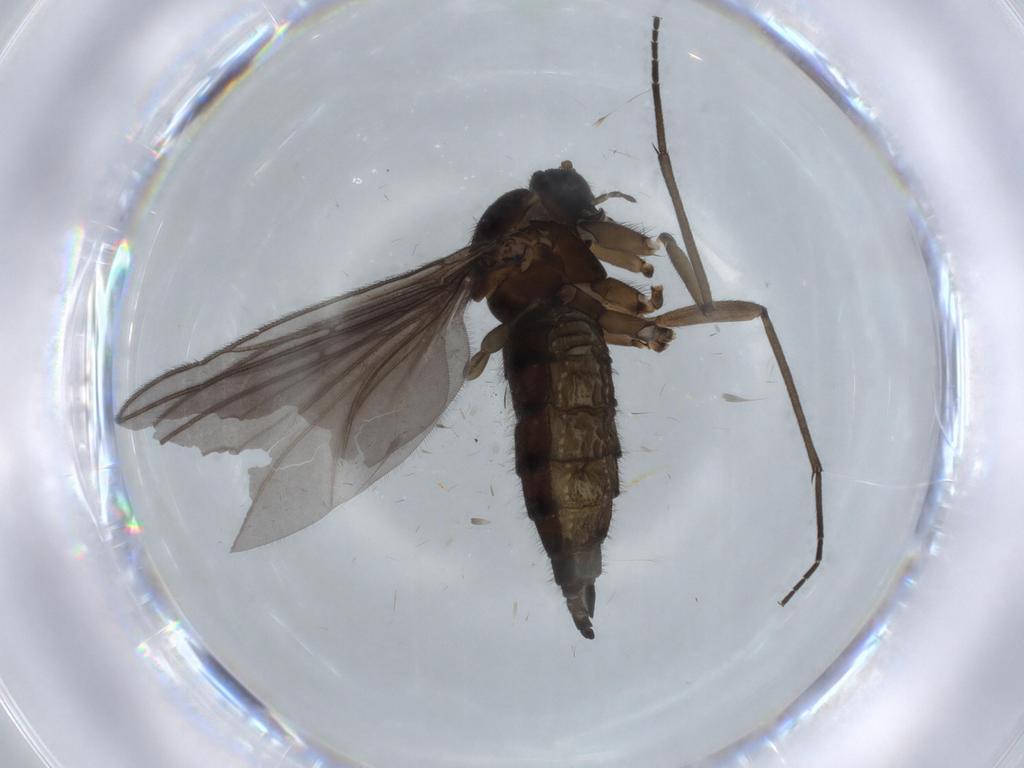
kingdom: Animalia
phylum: Arthropoda
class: Insecta
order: Diptera
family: Sciaridae
